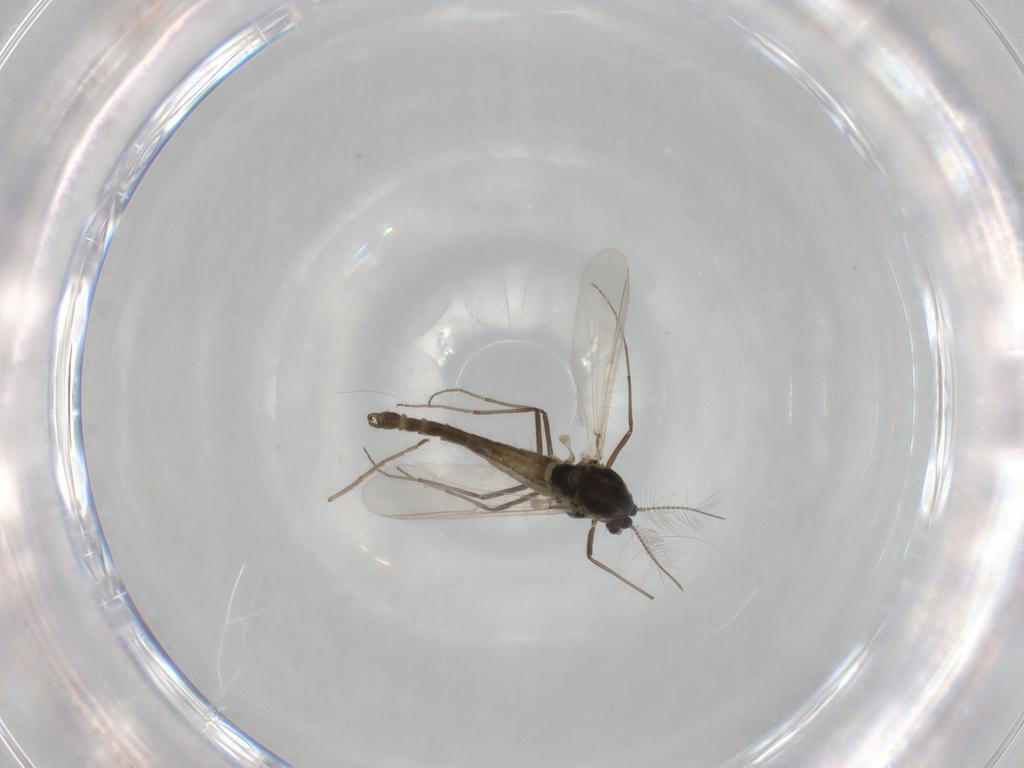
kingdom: Animalia
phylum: Arthropoda
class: Insecta
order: Diptera
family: Chironomidae
